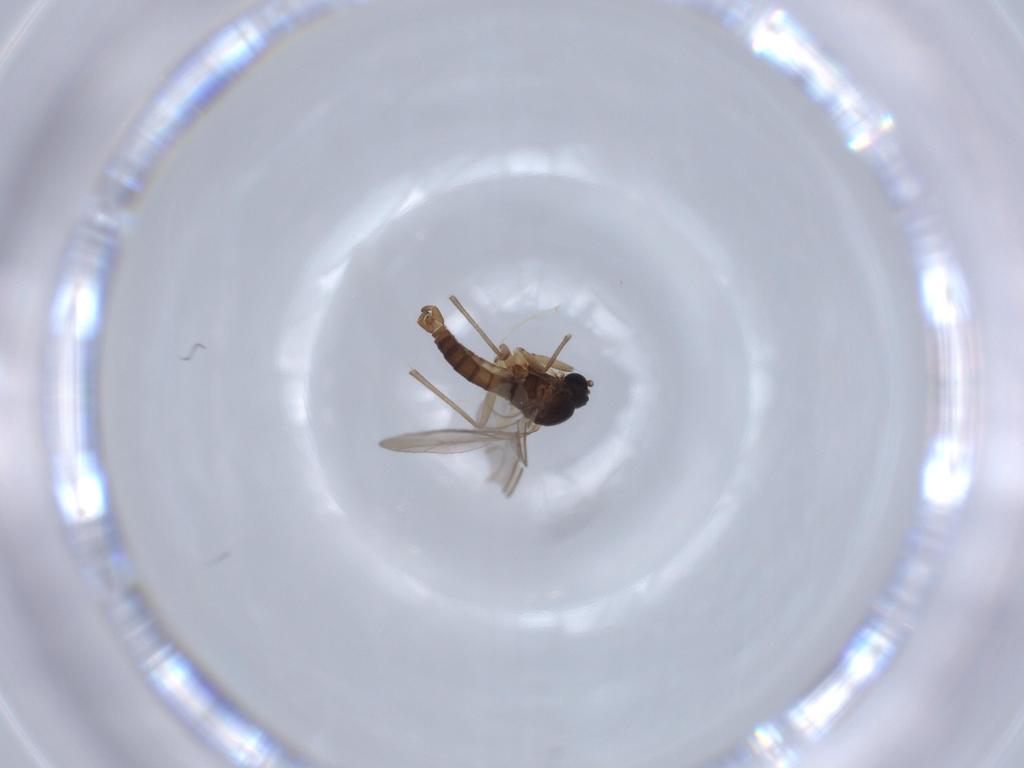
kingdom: Animalia
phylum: Arthropoda
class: Insecta
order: Diptera
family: Sciaridae
